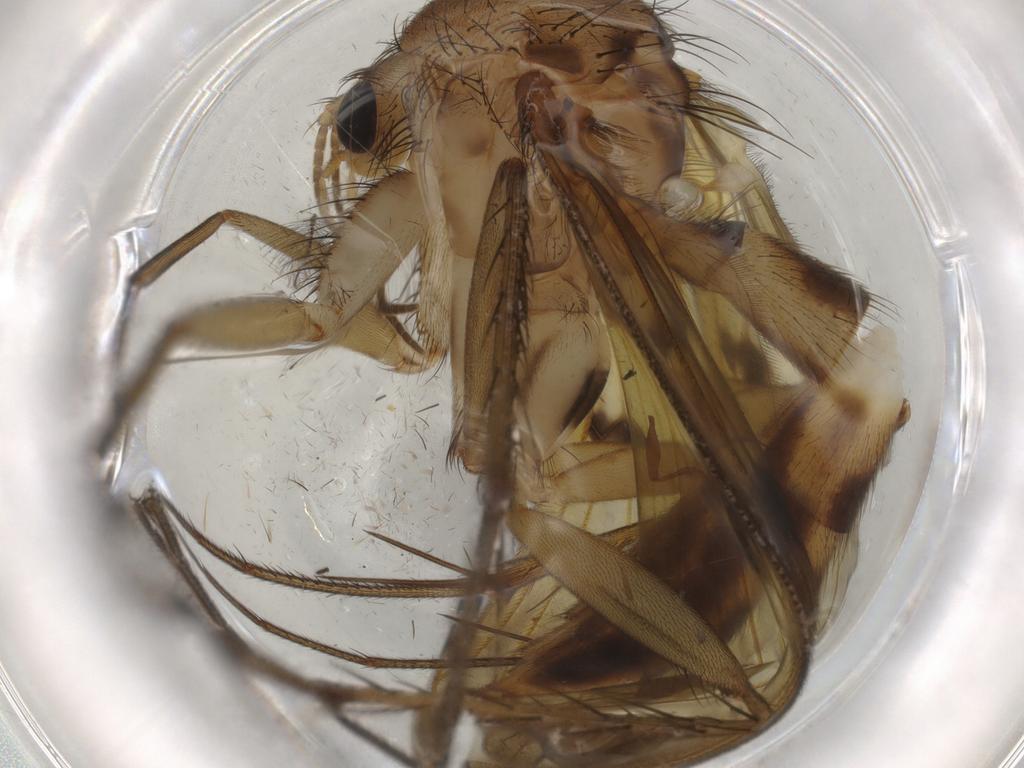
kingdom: Animalia
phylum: Arthropoda
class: Insecta
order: Diptera
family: Mycetophilidae
